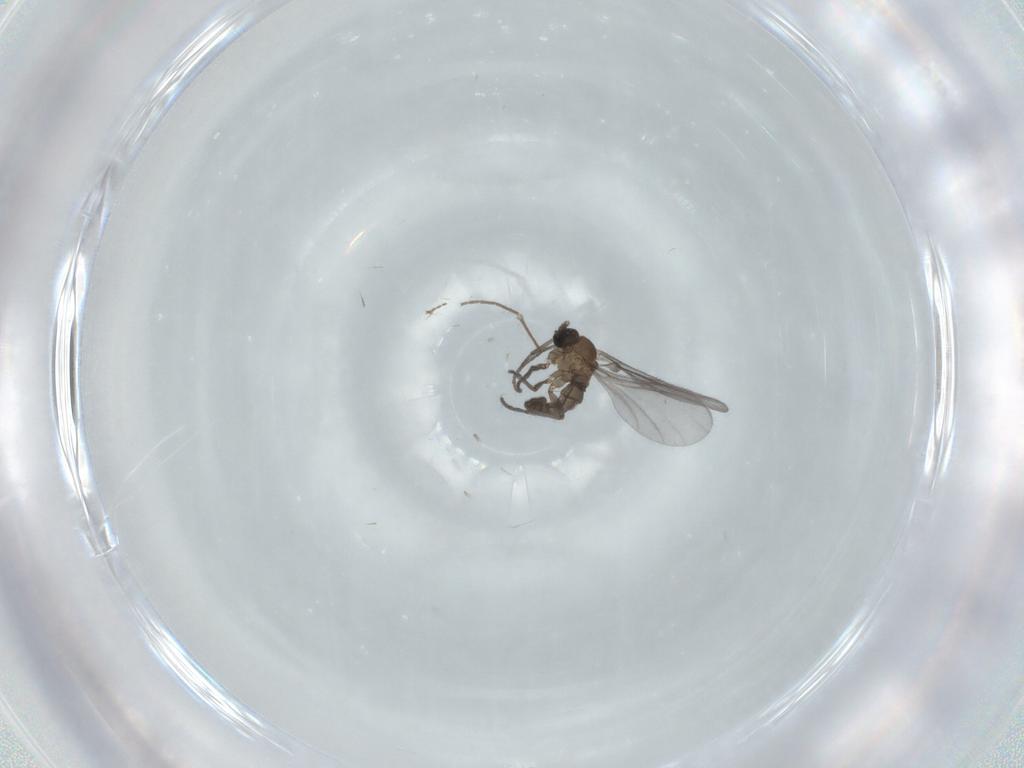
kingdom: Animalia
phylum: Arthropoda
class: Insecta
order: Diptera
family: Sciaridae
